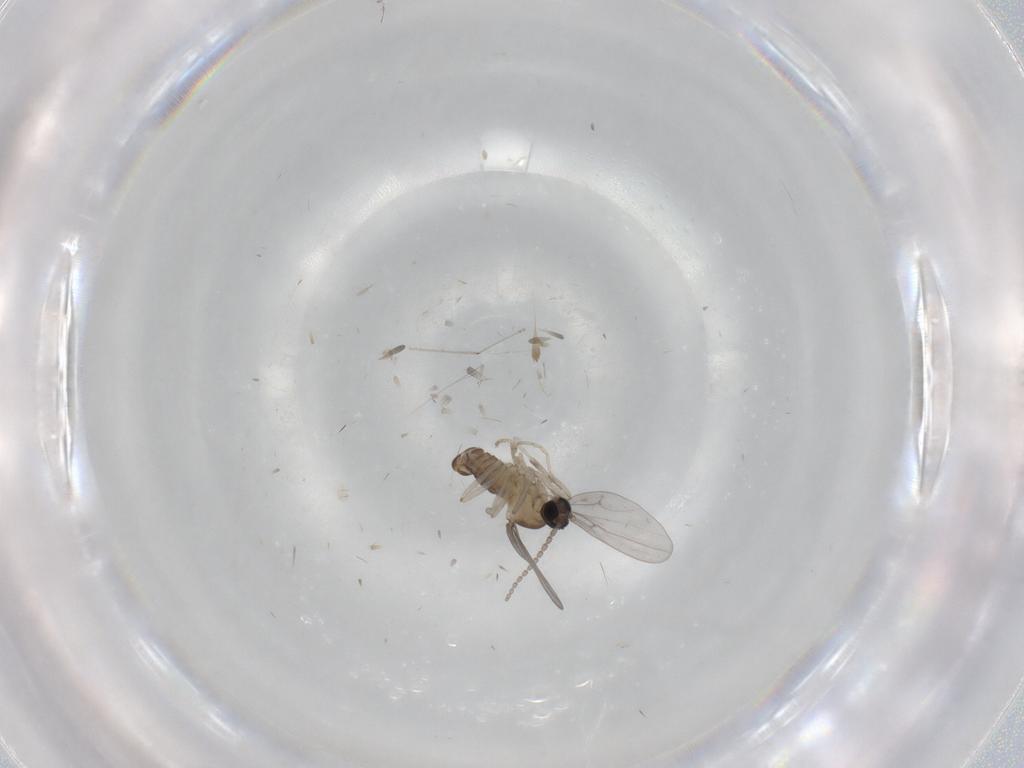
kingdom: Animalia
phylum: Arthropoda
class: Insecta
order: Diptera
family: Cecidomyiidae
